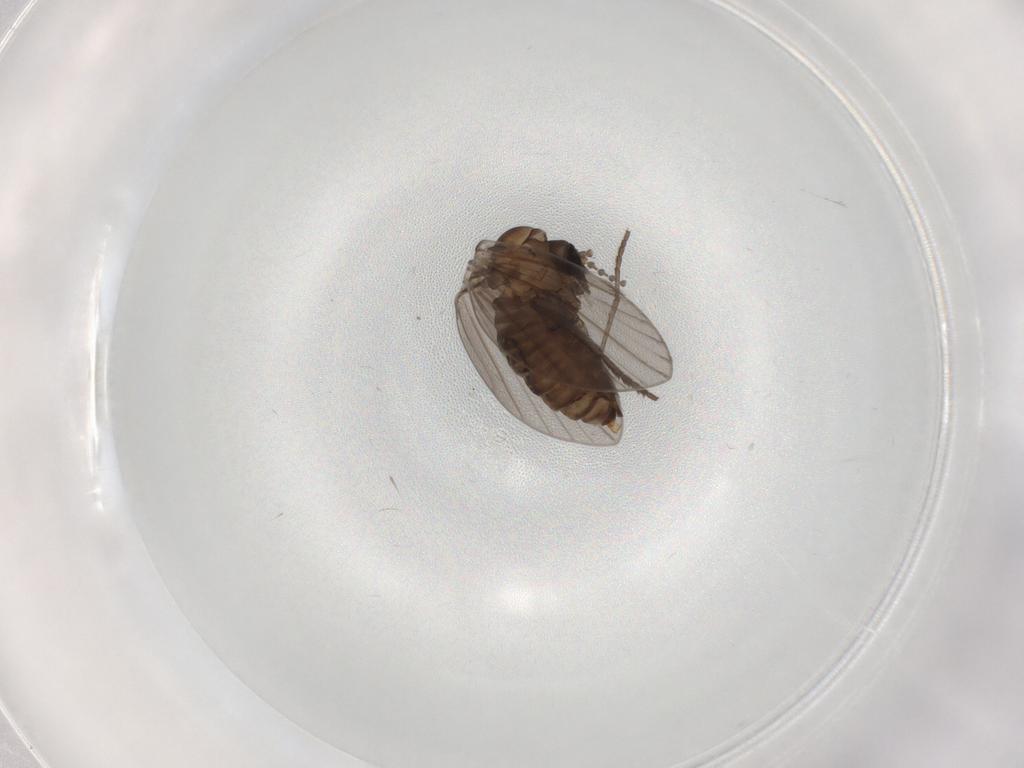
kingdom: Animalia
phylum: Arthropoda
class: Insecta
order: Diptera
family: Psychodidae
